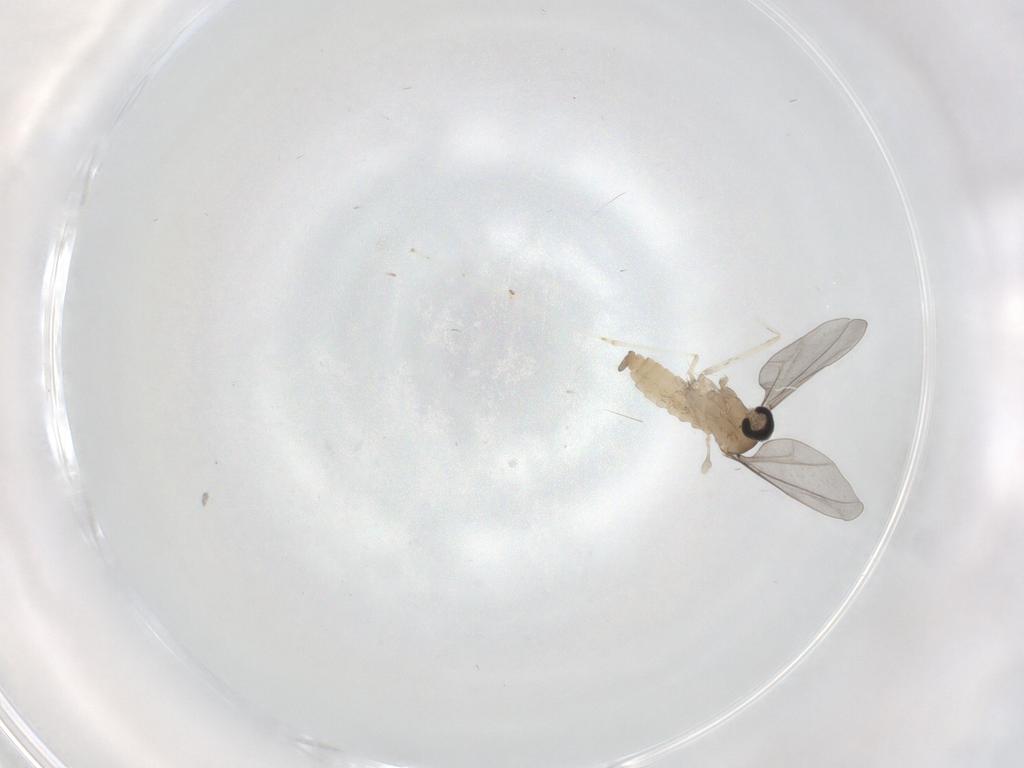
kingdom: Animalia
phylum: Arthropoda
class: Insecta
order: Diptera
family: Cecidomyiidae
